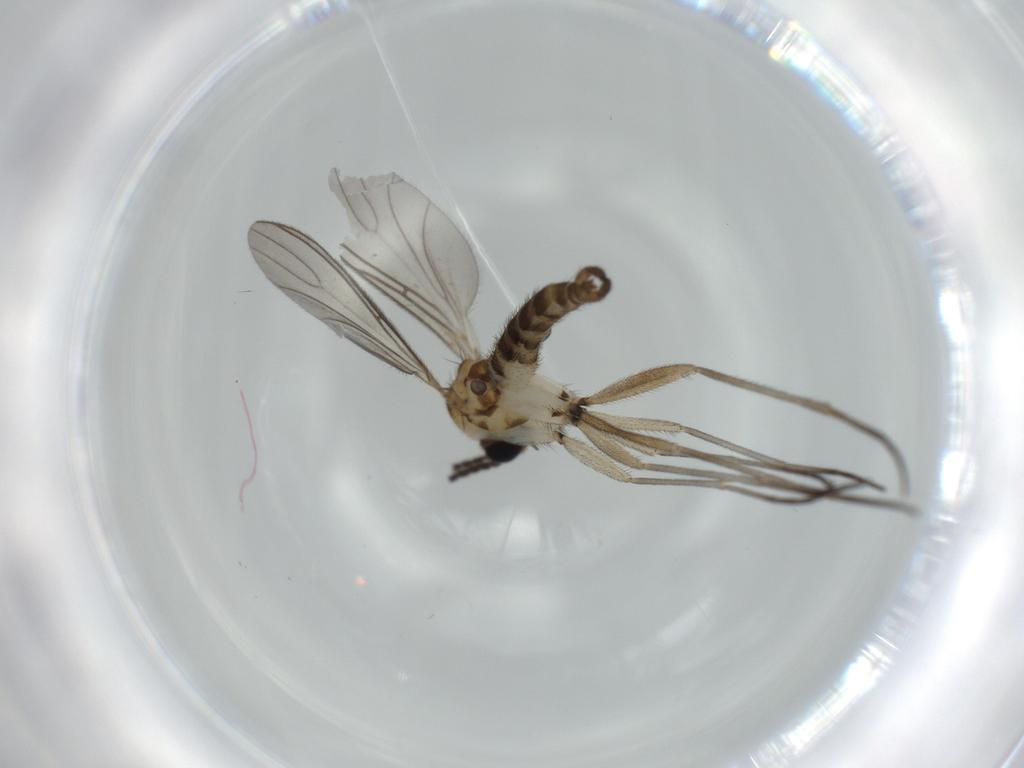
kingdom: Animalia
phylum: Arthropoda
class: Insecta
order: Diptera
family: Sciaridae
